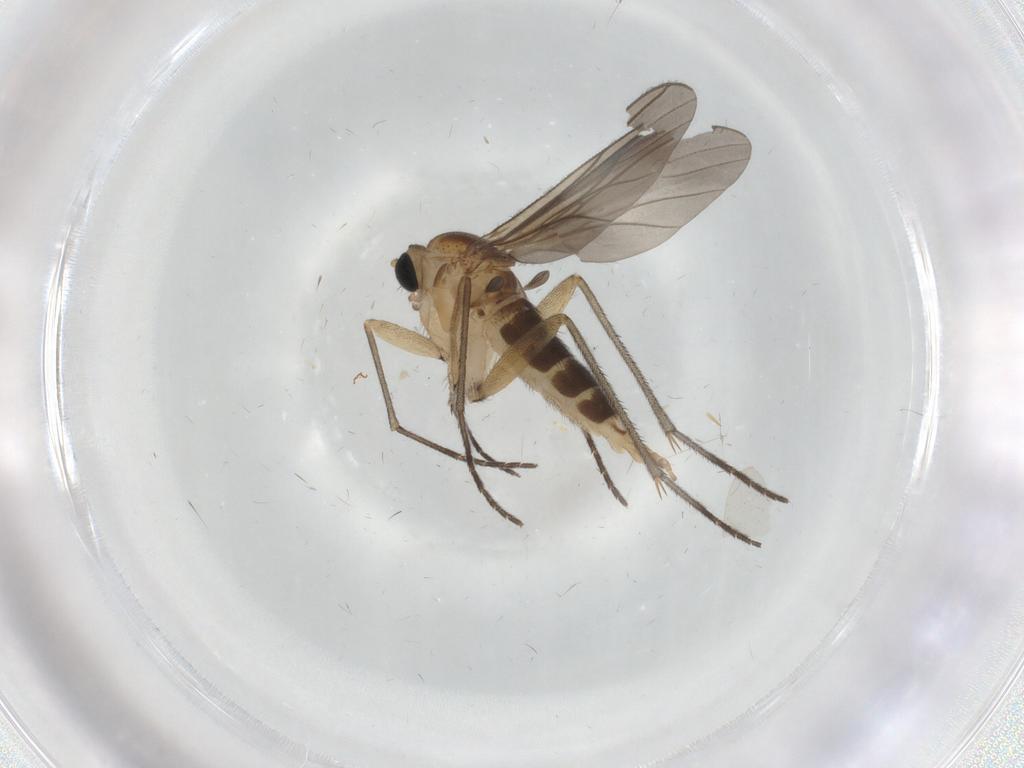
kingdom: Animalia
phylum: Arthropoda
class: Insecta
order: Diptera
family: Sciaridae
